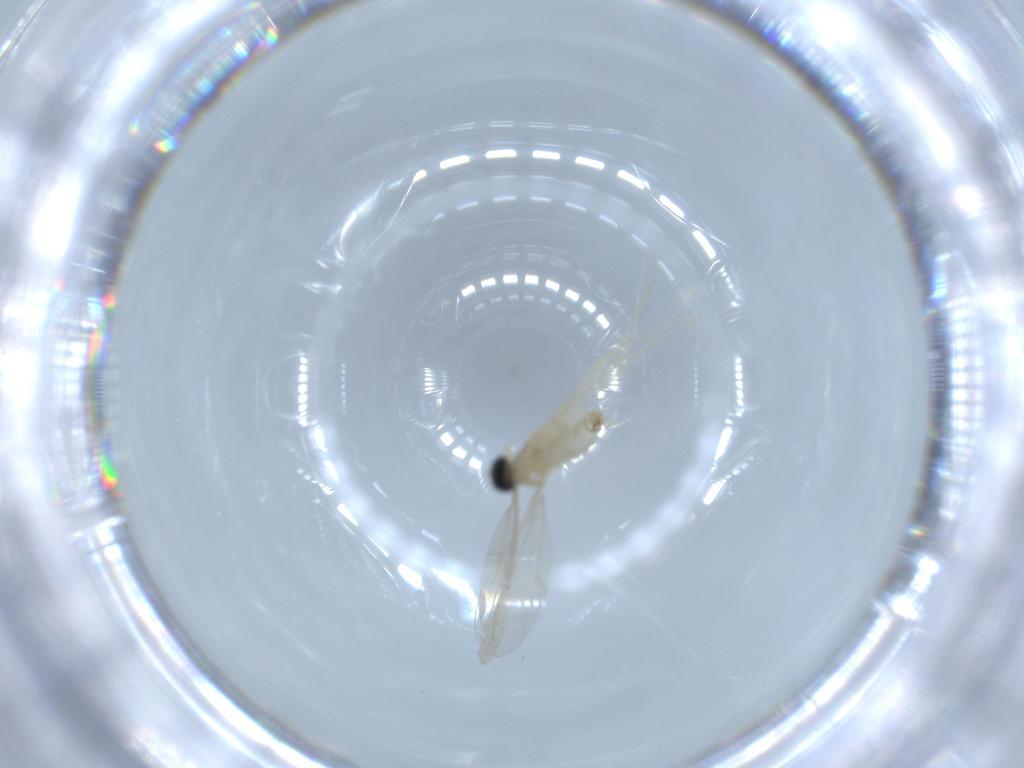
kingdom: Animalia
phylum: Arthropoda
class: Insecta
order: Diptera
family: Cecidomyiidae
